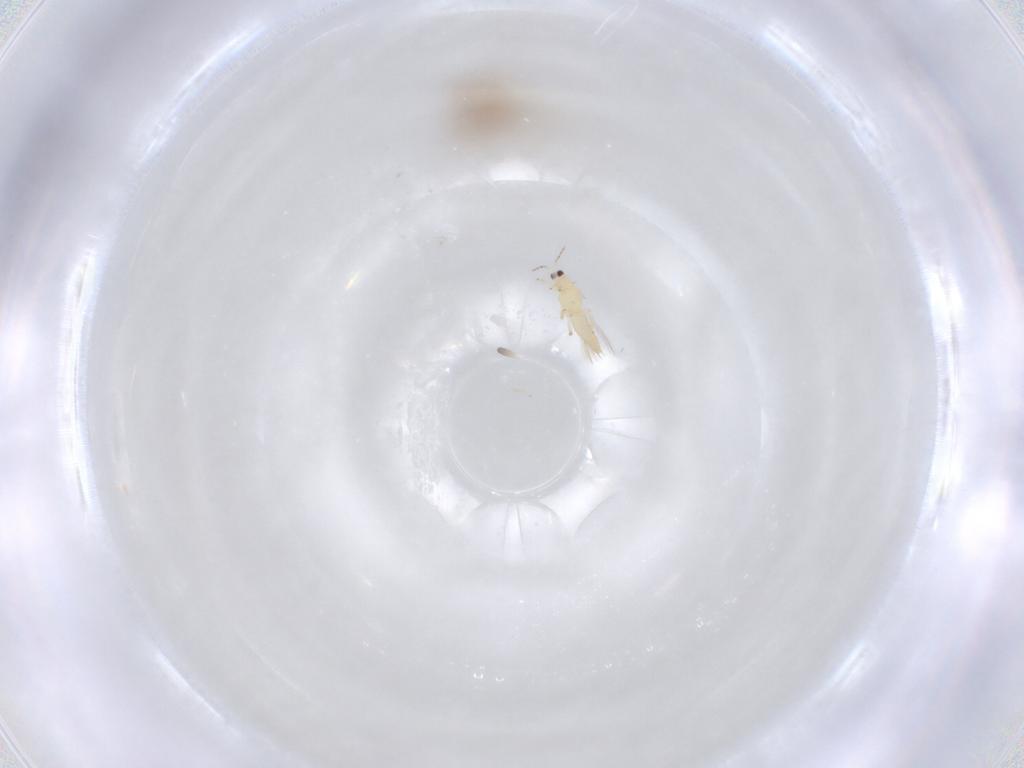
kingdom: Animalia
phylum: Arthropoda
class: Insecta
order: Thysanoptera
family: Thripidae
